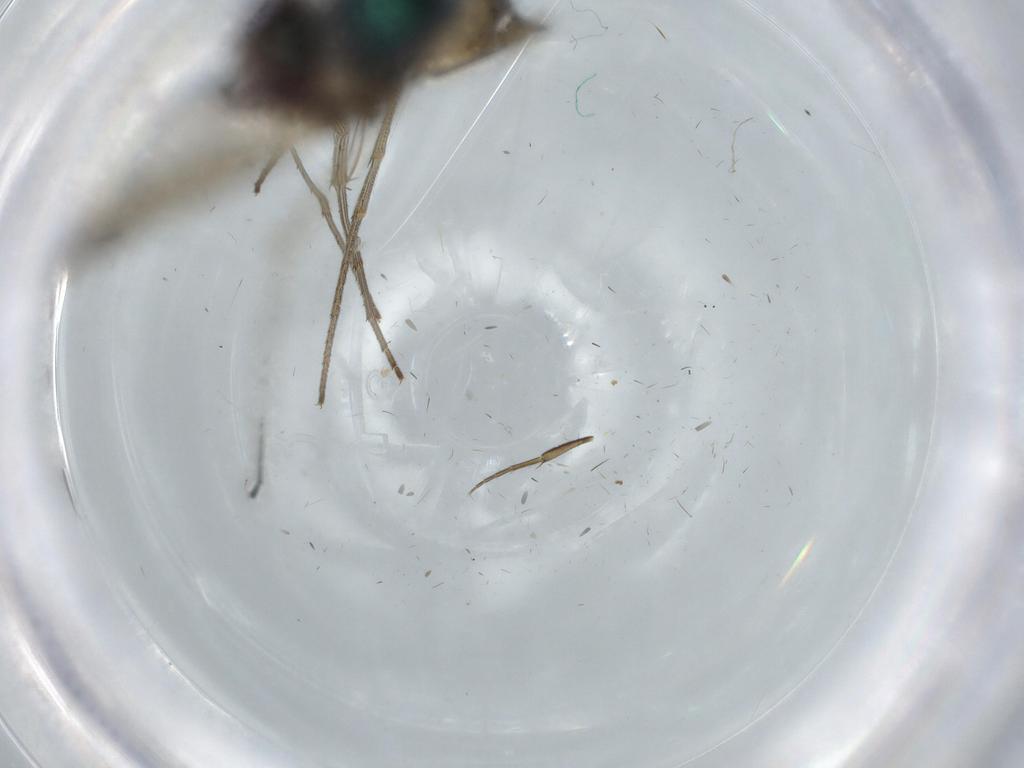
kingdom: Animalia
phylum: Arthropoda
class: Insecta
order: Diptera
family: Dolichopodidae
